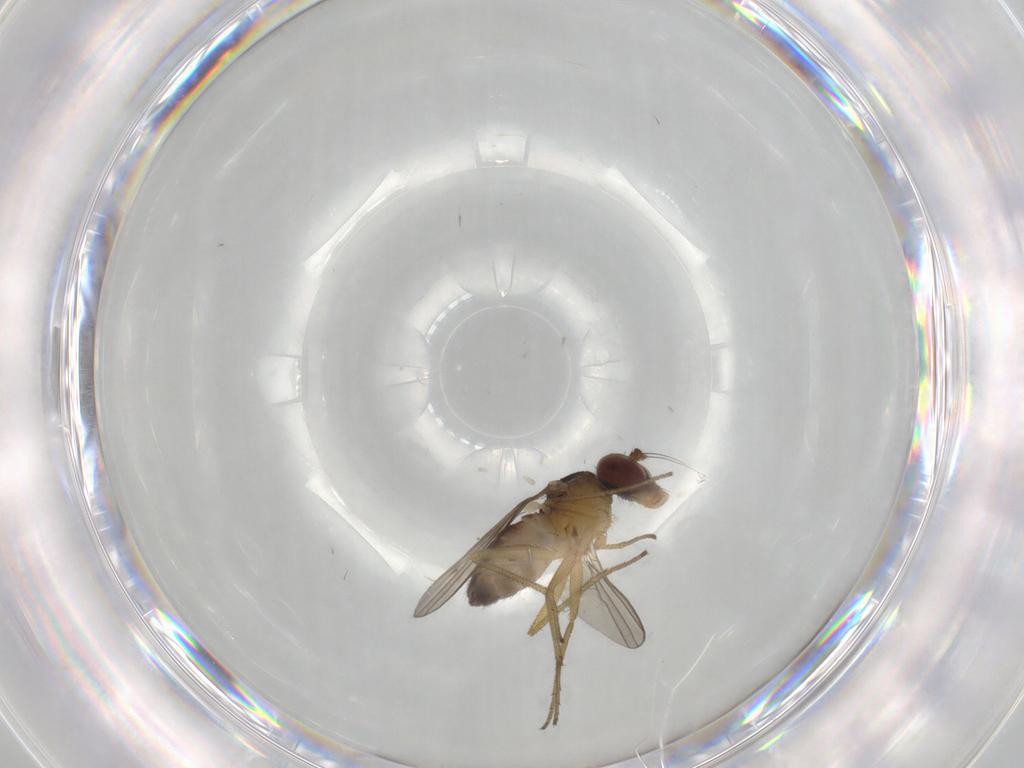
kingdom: Animalia
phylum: Arthropoda
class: Insecta
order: Diptera
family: Dolichopodidae
